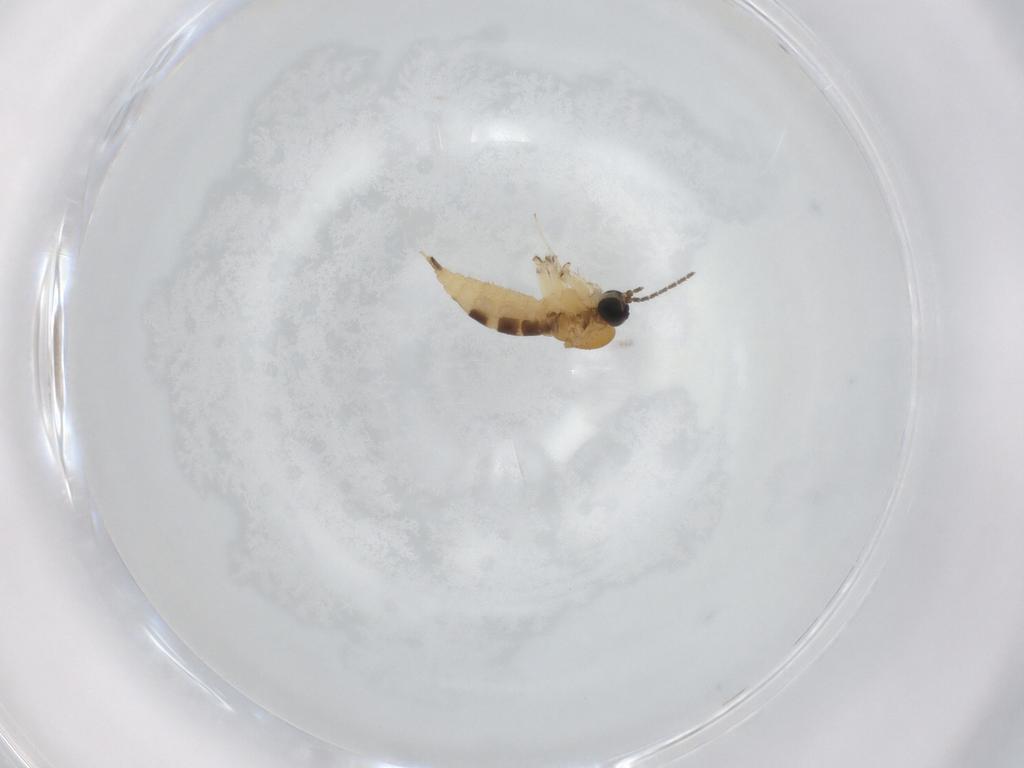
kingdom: Animalia
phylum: Arthropoda
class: Insecta
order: Diptera
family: Sciaridae
